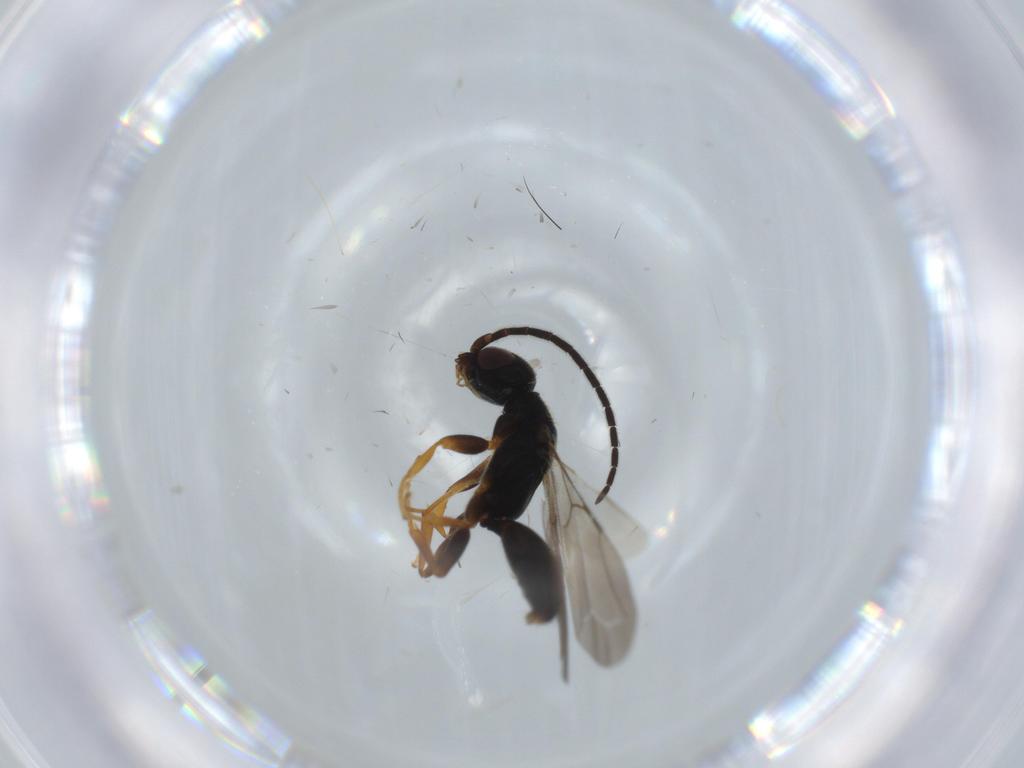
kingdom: Animalia
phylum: Arthropoda
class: Insecta
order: Hymenoptera
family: Bethylidae
